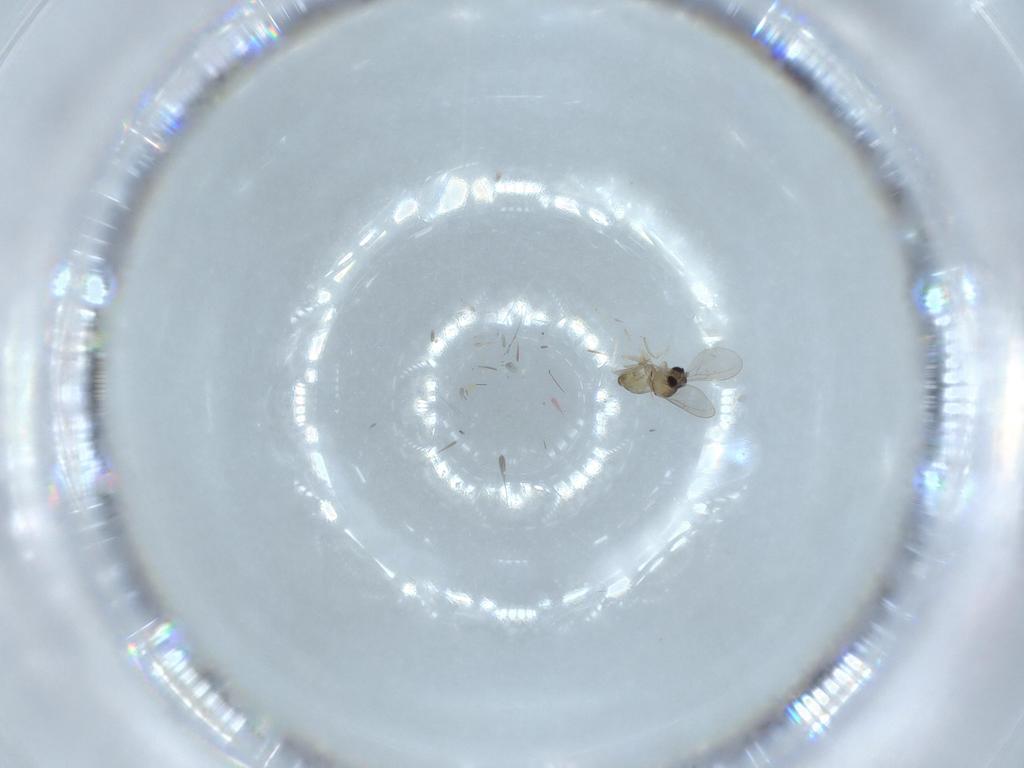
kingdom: Animalia
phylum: Arthropoda
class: Insecta
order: Diptera
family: Cecidomyiidae
